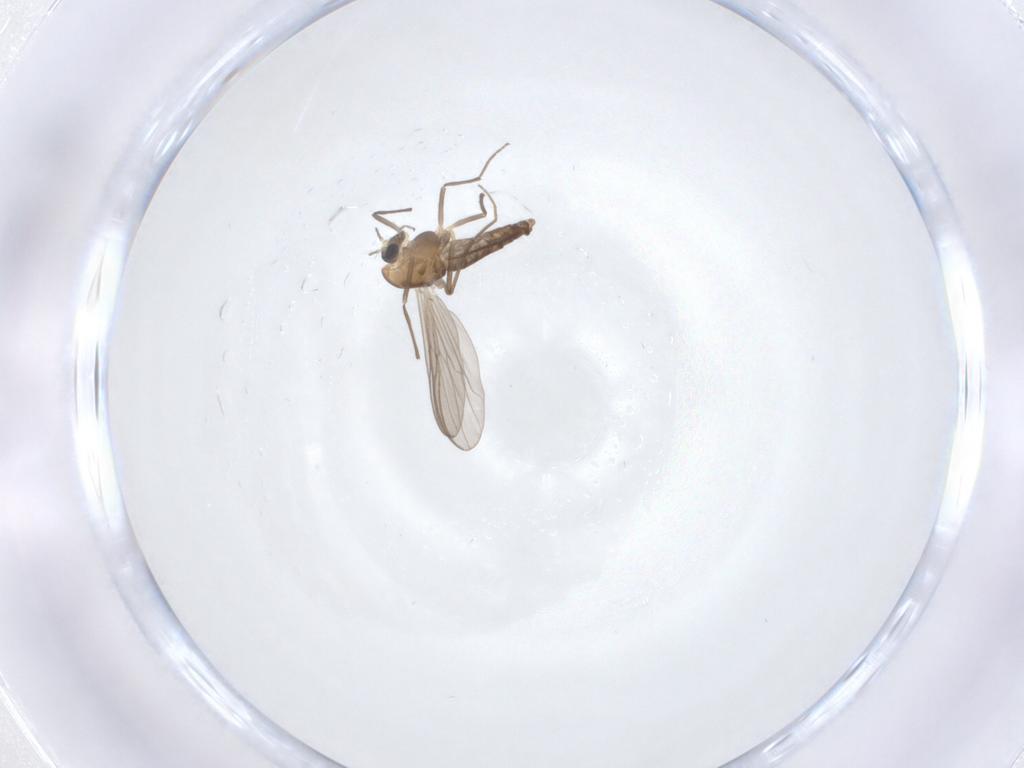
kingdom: Animalia
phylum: Arthropoda
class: Insecta
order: Diptera
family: Chironomidae
